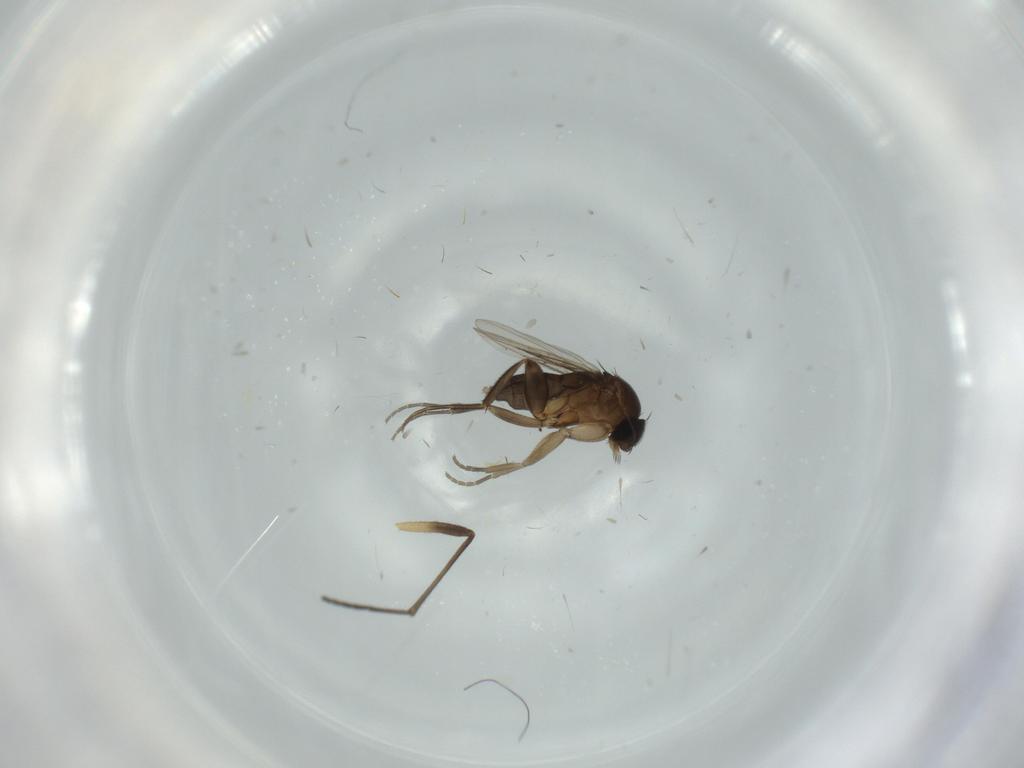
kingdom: Animalia
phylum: Arthropoda
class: Insecta
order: Diptera
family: Phoridae
